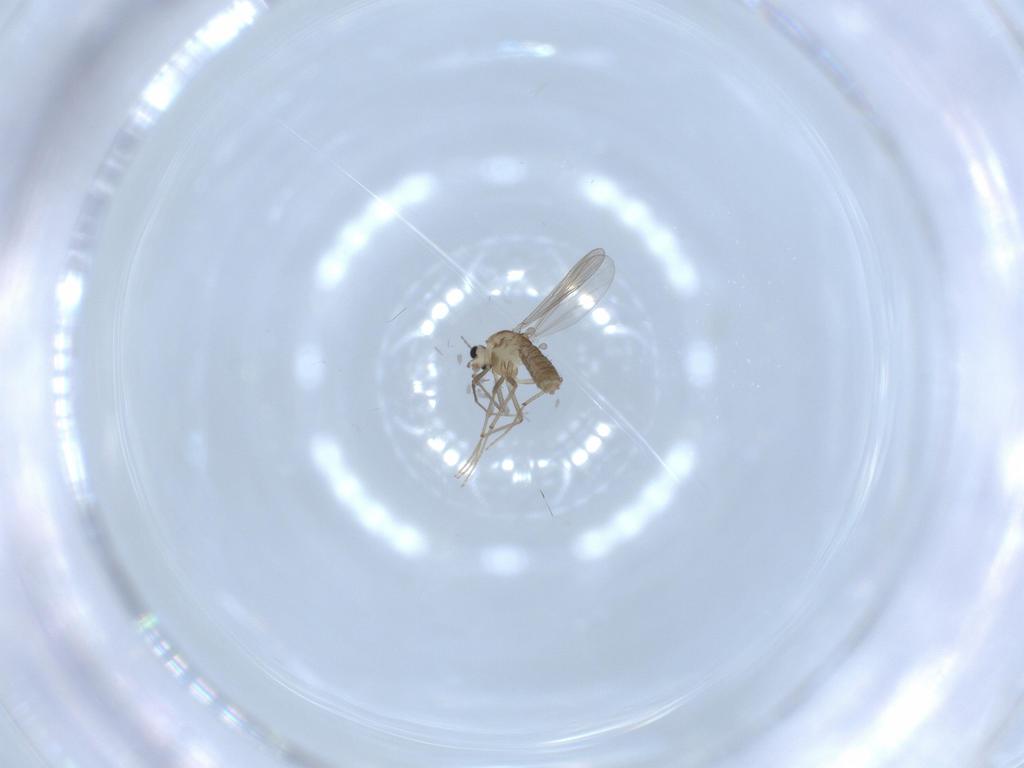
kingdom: Animalia
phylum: Arthropoda
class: Insecta
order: Diptera
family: Chironomidae
